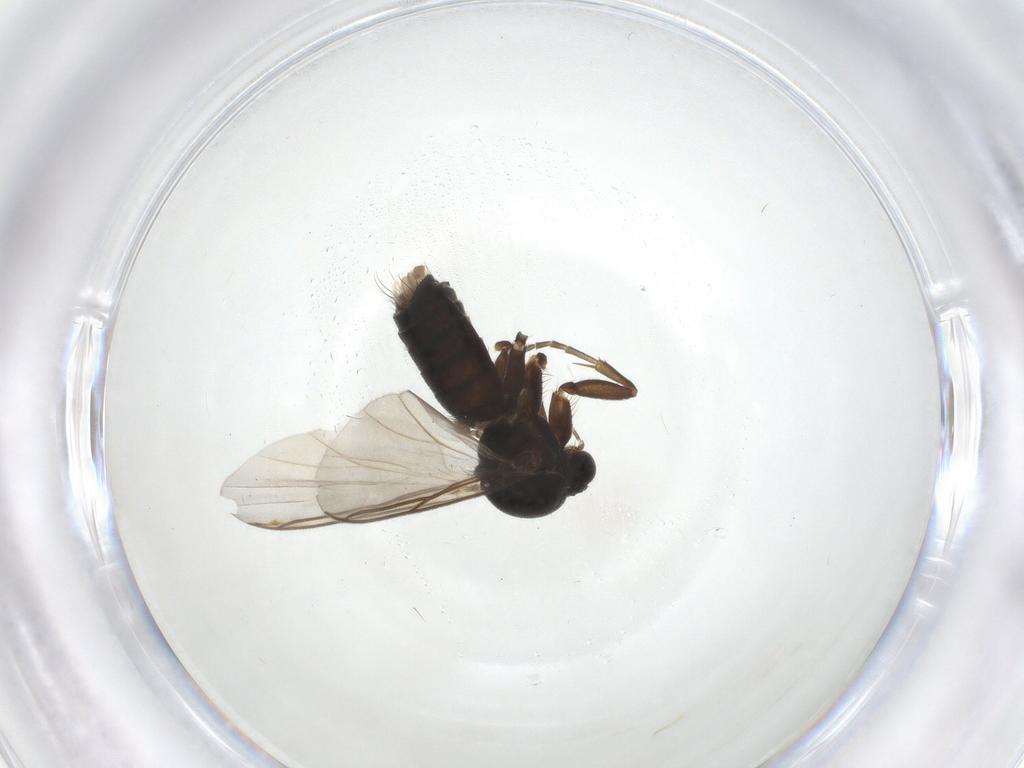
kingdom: Animalia
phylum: Arthropoda
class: Insecta
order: Diptera
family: Mycetophilidae
